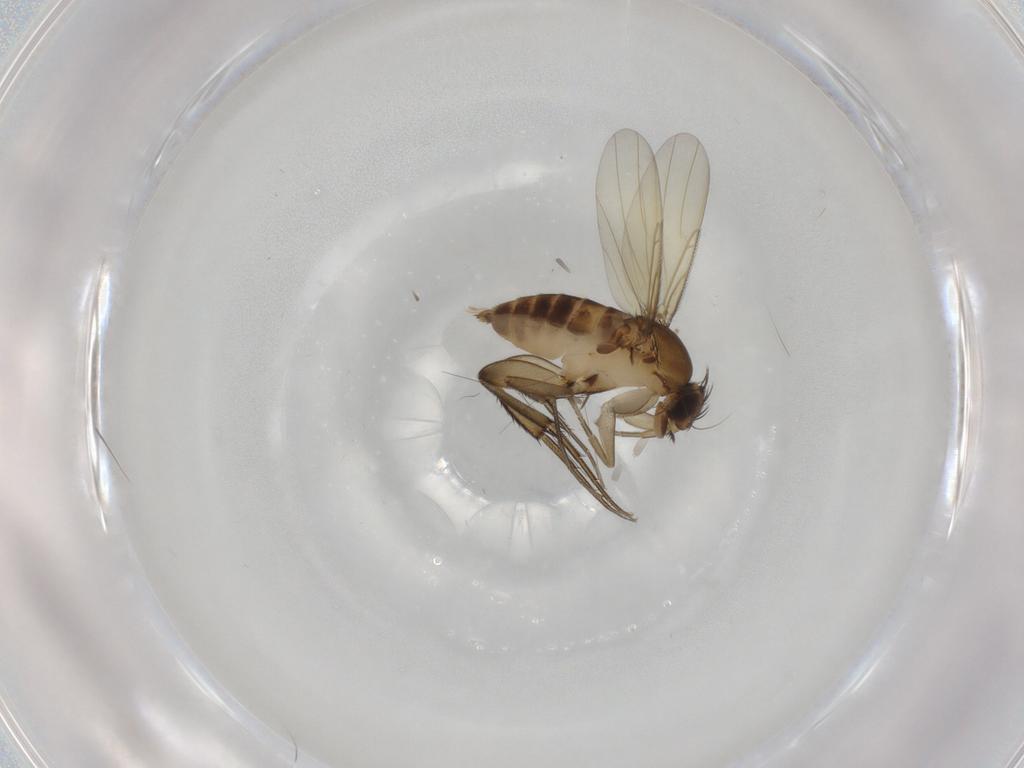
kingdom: Animalia
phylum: Arthropoda
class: Insecta
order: Diptera
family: Phoridae
